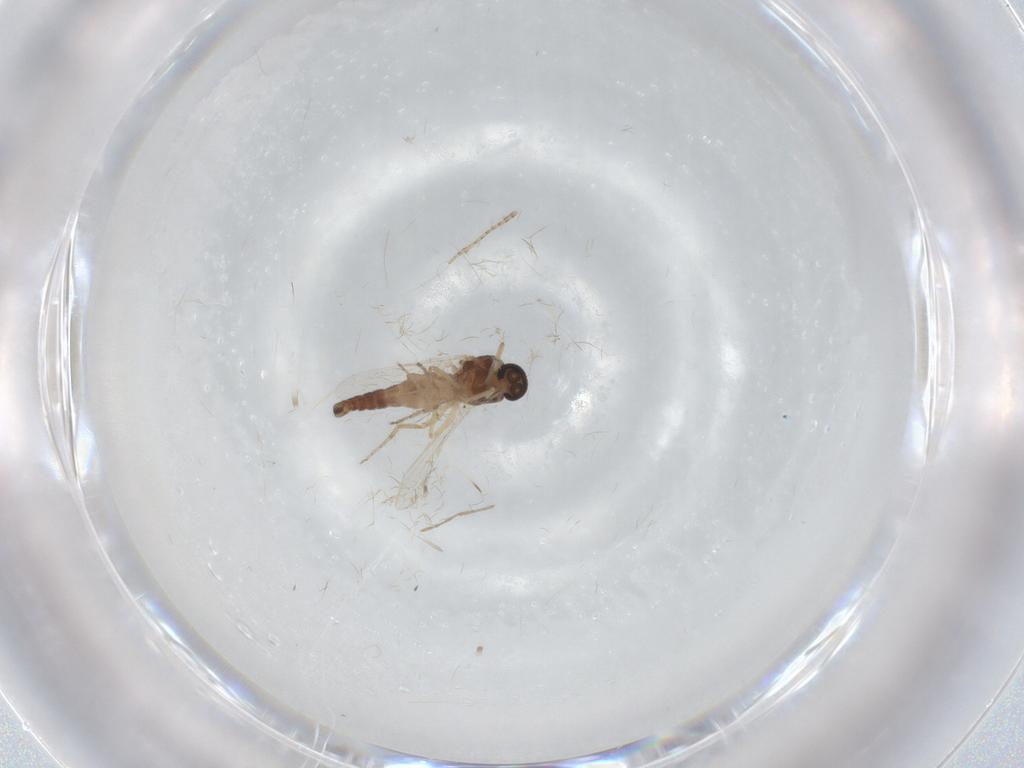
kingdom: Animalia
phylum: Arthropoda
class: Insecta
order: Diptera
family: Ceratopogonidae
